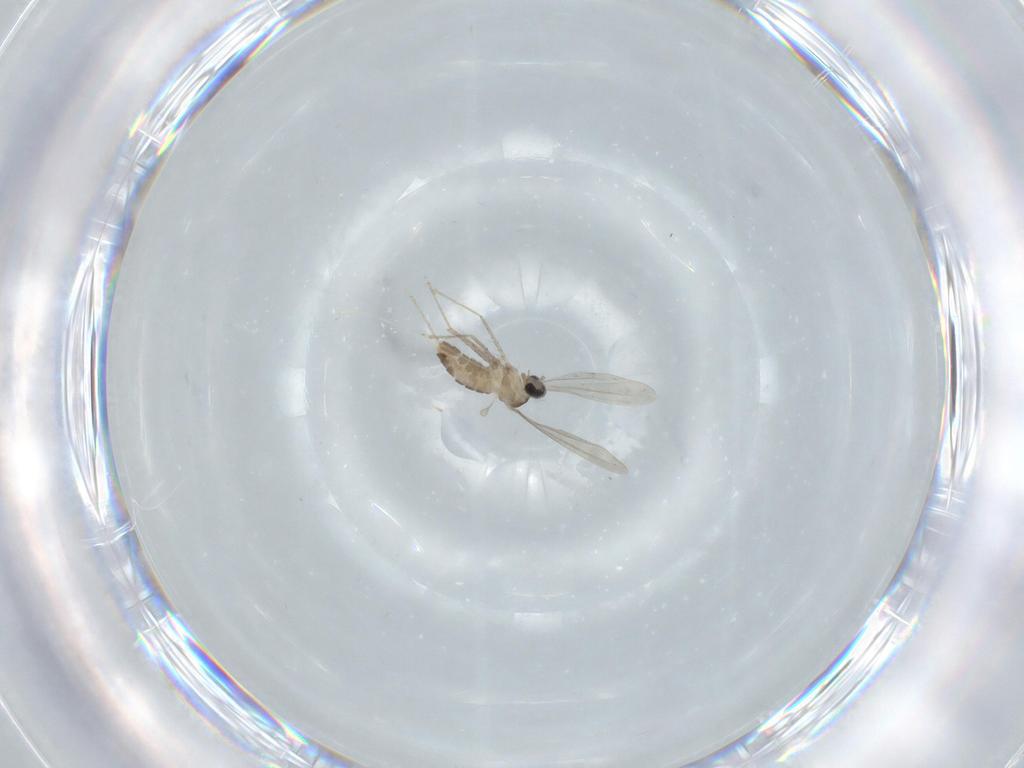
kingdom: Animalia
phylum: Arthropoda
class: Insecta
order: Diptera
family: Cecidomyiidae
